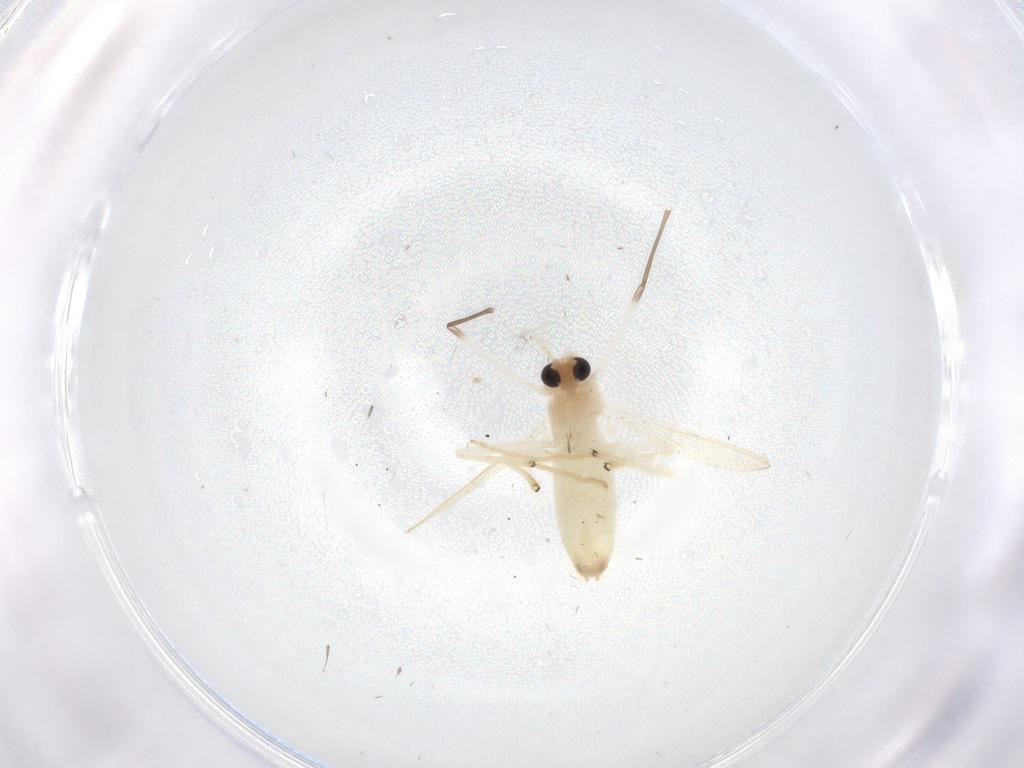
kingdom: Animalia
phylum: Arthropoda
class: Insecta
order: Diptera
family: Chironomidae
